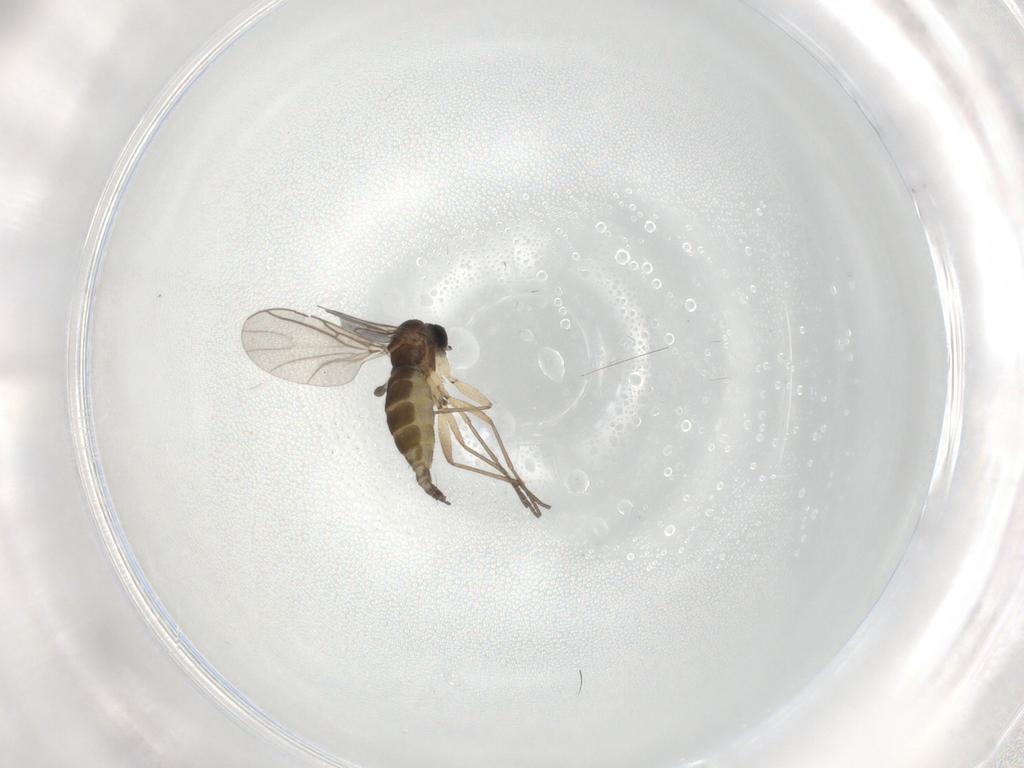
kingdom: Animalia
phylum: Arthropoda
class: Insecta
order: Diptera
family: Sciaridae
